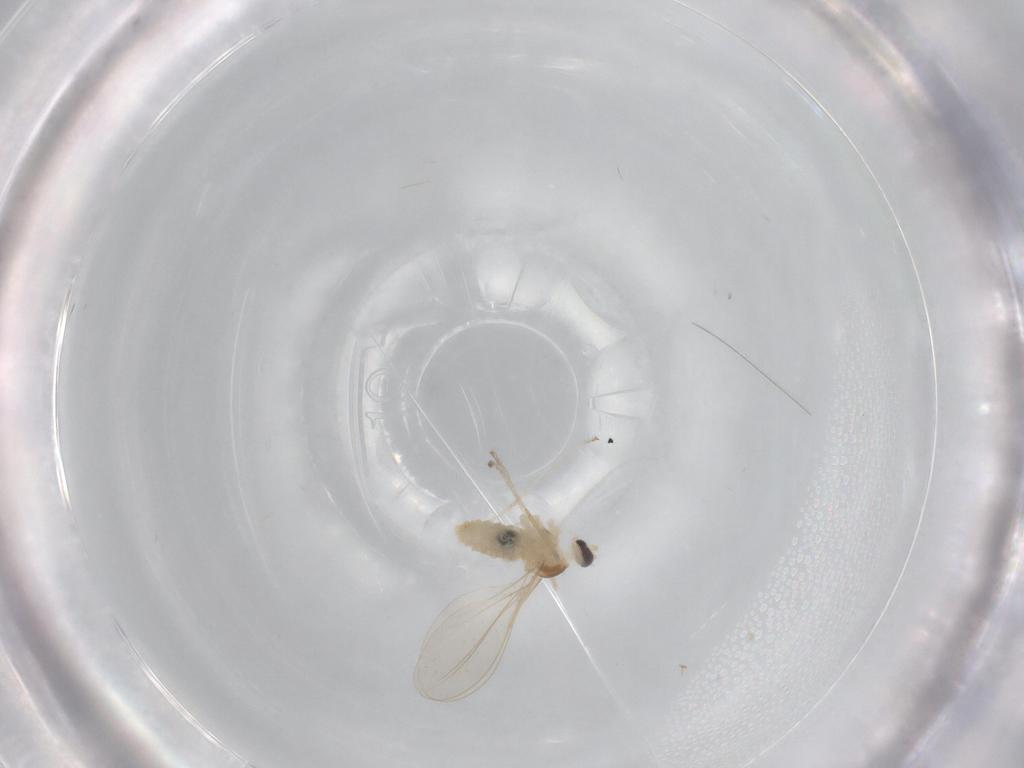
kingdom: Animalia
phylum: Arthropoda
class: Insecta
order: Diptera
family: Cecidomyiidae
